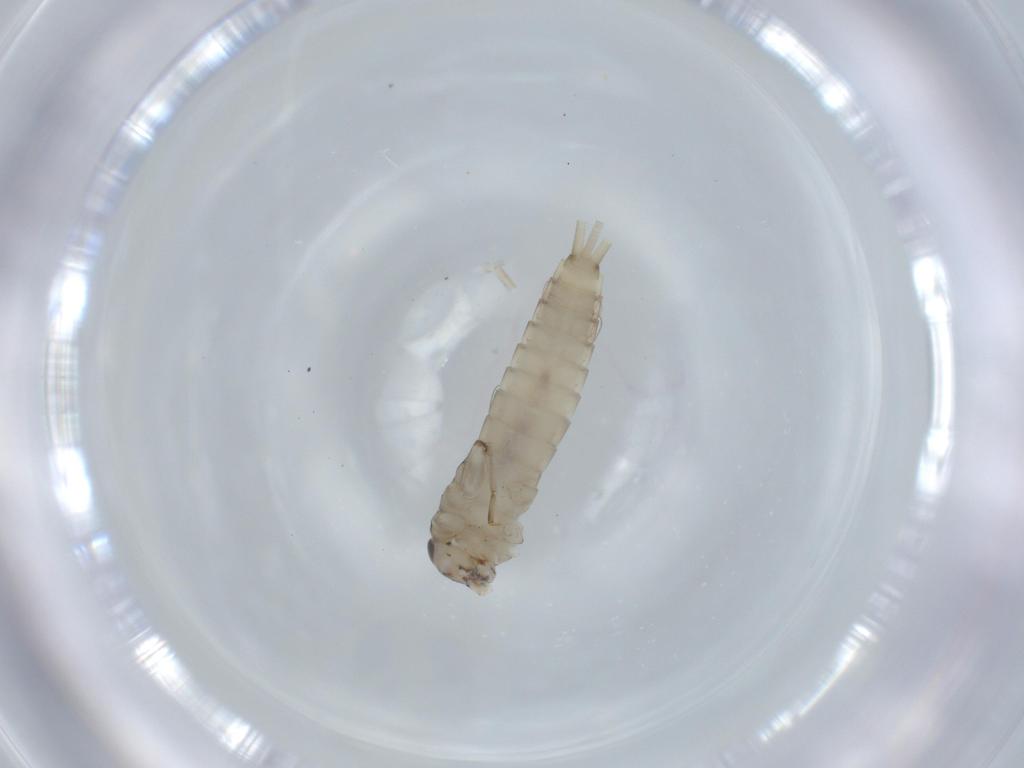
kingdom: Animalia
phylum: Arthropoda
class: Insecta
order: Ephemeroptera
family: Baetidae
